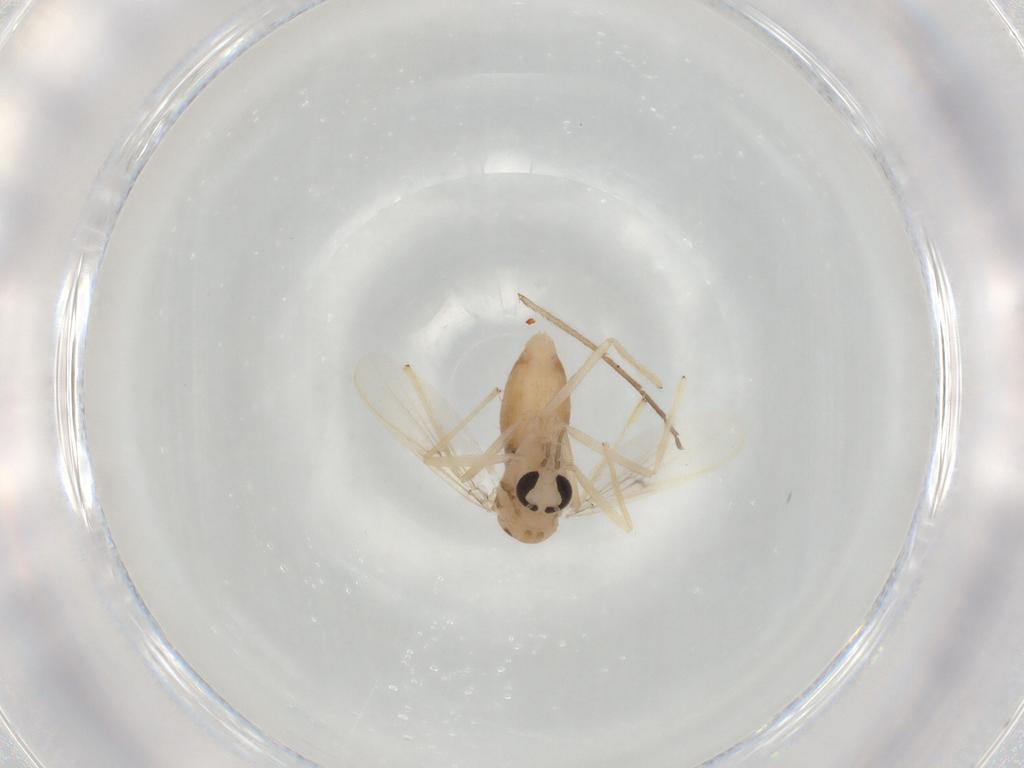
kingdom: Animalia
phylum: Arthropoda
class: Insecta
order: Diptera
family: Chironomidae
